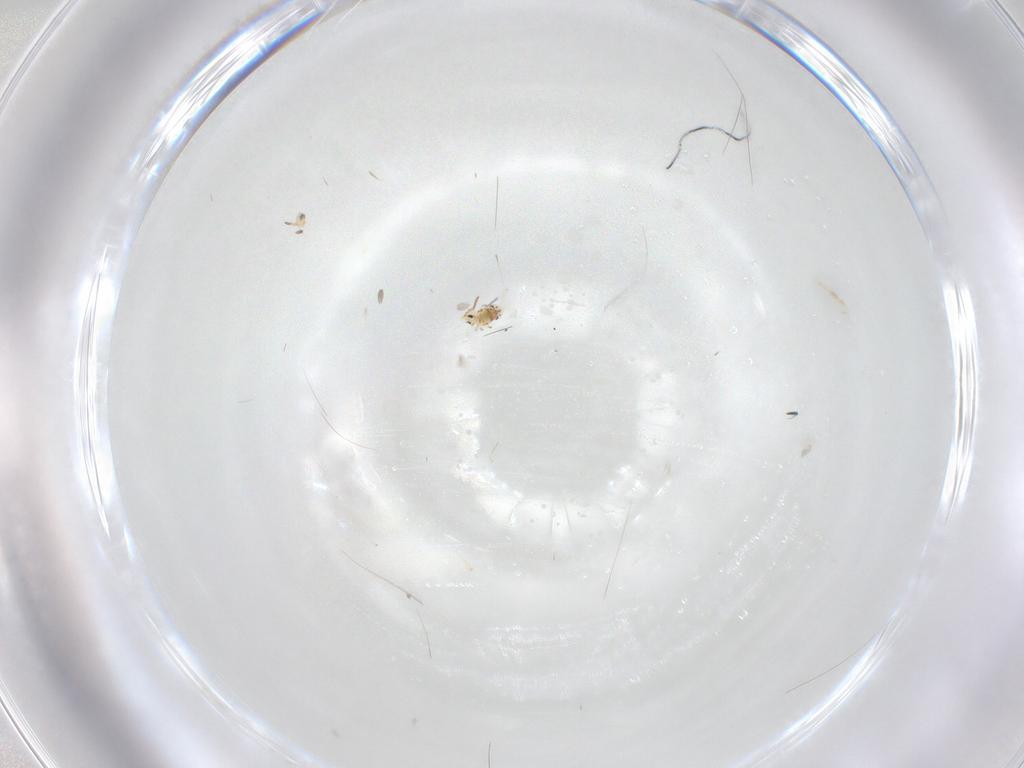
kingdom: Animalia
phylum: Arthropoda
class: Collembola
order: Symphypleona
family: Bourletiellidae
